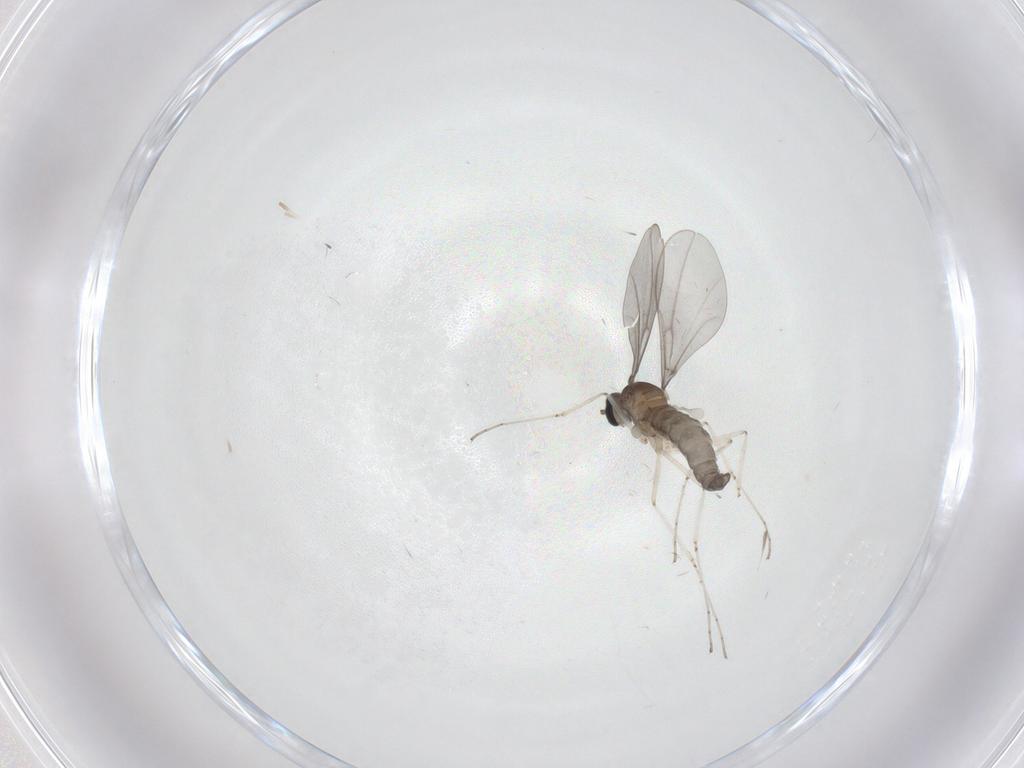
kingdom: Animalia
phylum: Arthropoda
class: Insecta
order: Diptera
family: Cecidomyiidae
